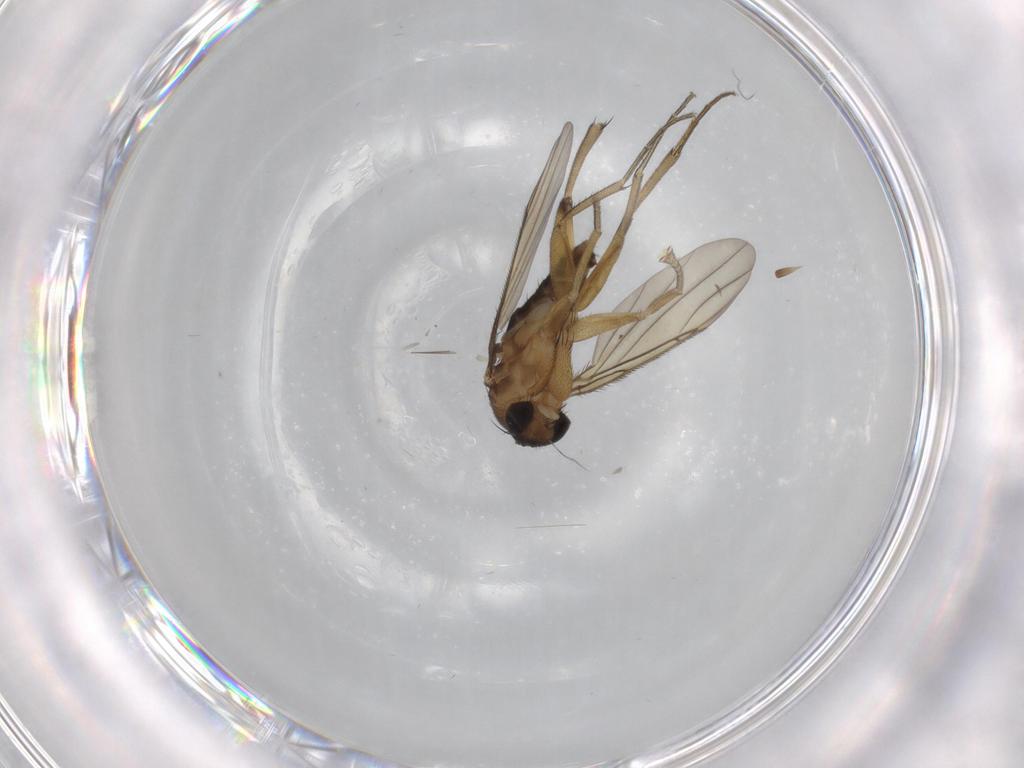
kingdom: Animalia
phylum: Arthropoda
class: Insecta
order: Diptera
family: Phoridae
